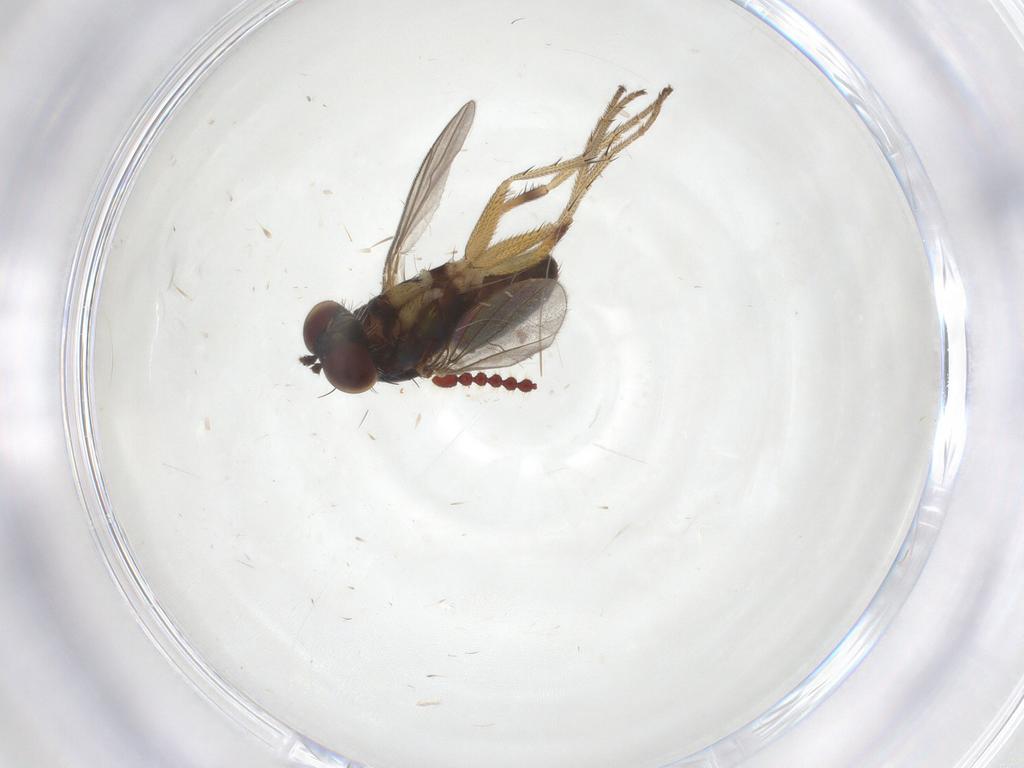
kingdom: Animalia
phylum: Arthropoda
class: Insecta
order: Diptera
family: Dolichopodidae
